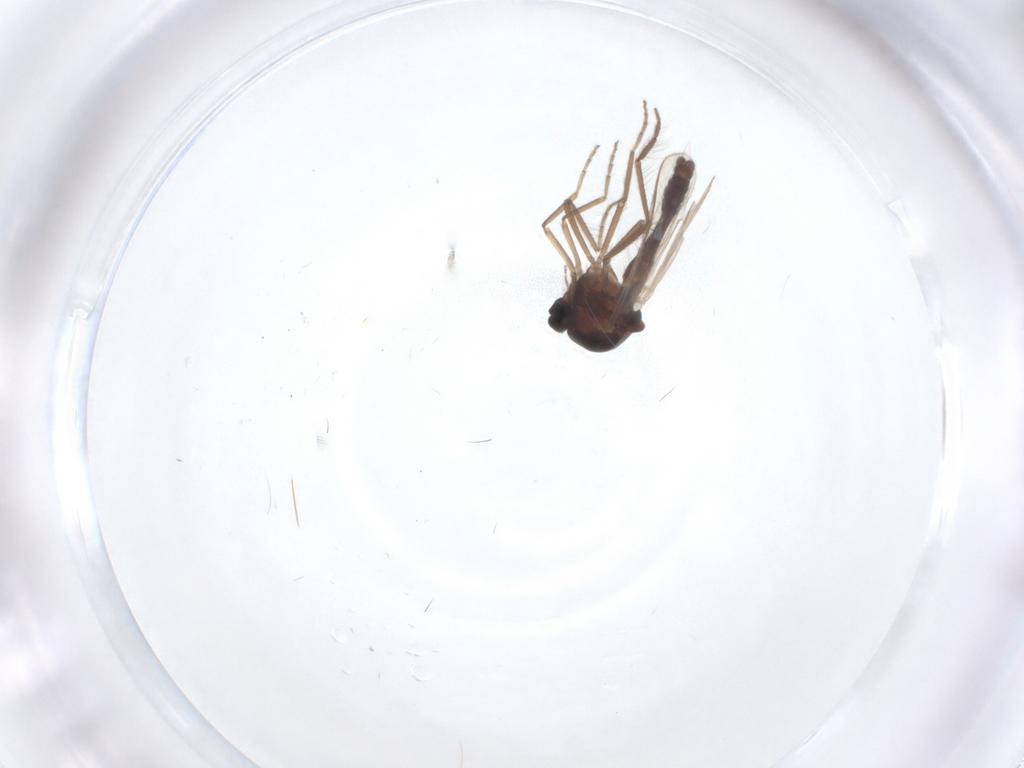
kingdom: Animalia
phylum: Arthropoda
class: Insecta
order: Diptera
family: Ceratopogonidae
